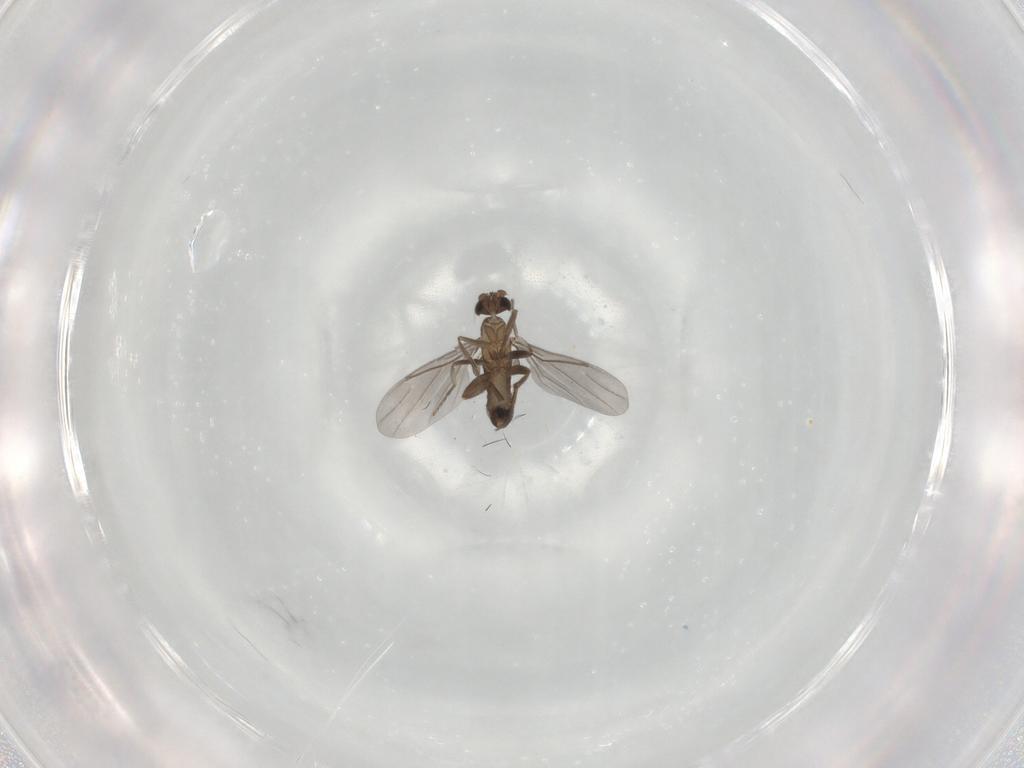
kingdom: Animalia
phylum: Arthropoda
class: Insecta
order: Diptera
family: Phoridae
